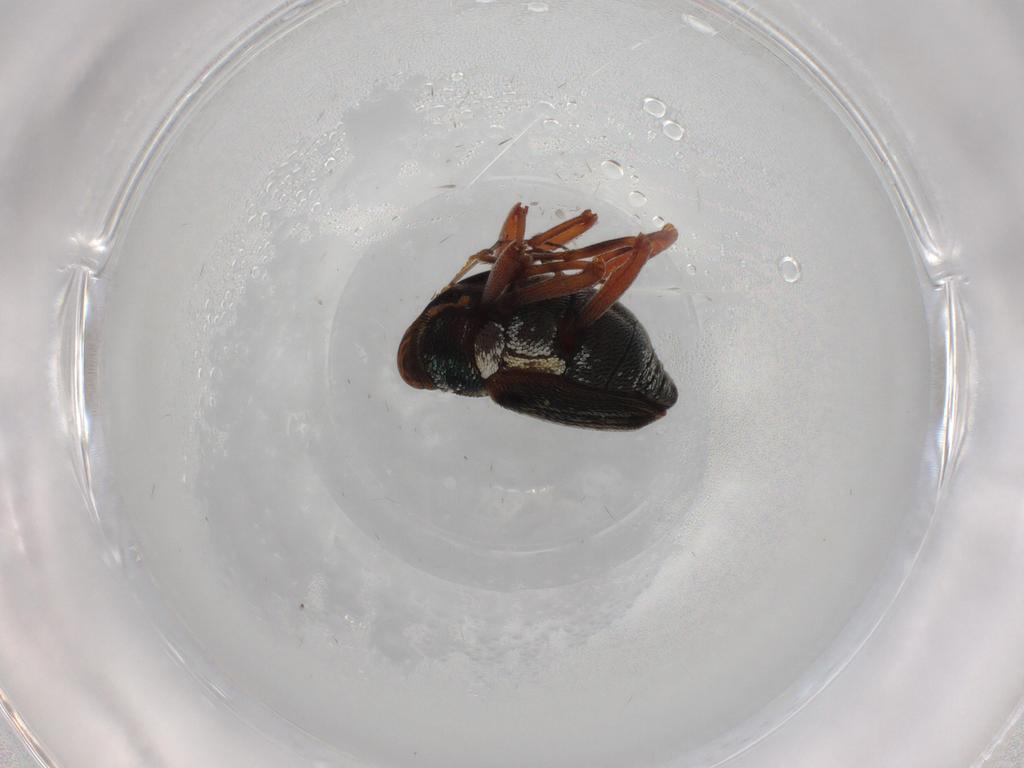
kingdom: Animalia
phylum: Arthropoda
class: Insecta
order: Coleoptera
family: Curculionidae
